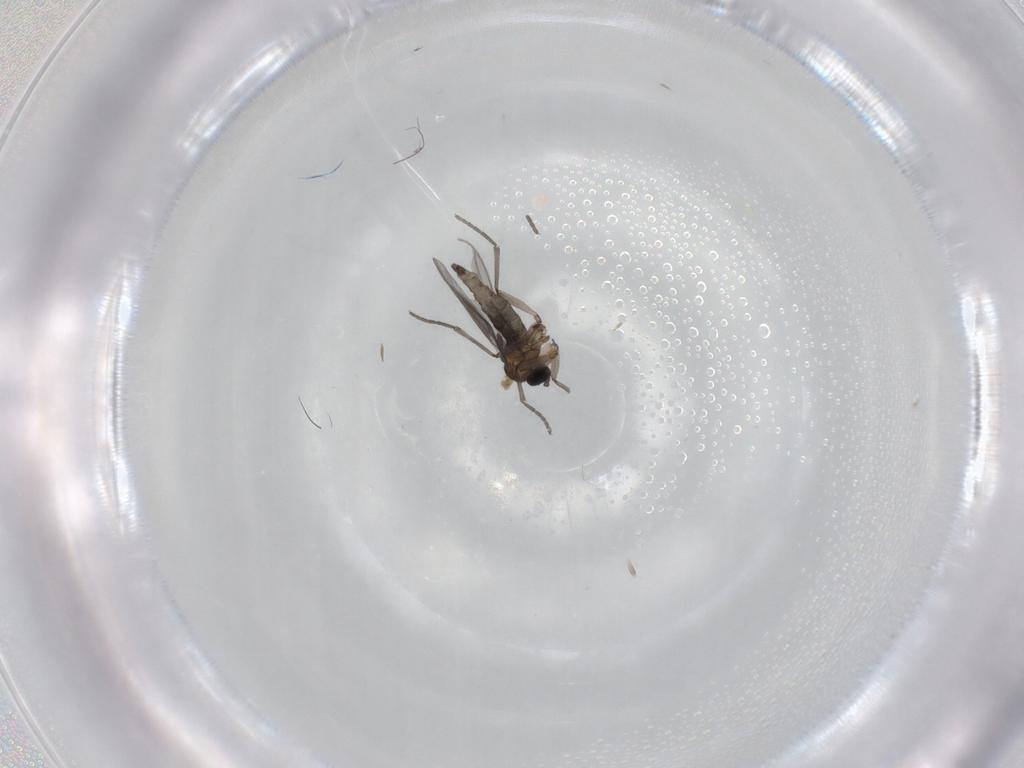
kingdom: Animalia
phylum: Arthropoda
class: Insecta
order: Diptera
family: Sciaridae
